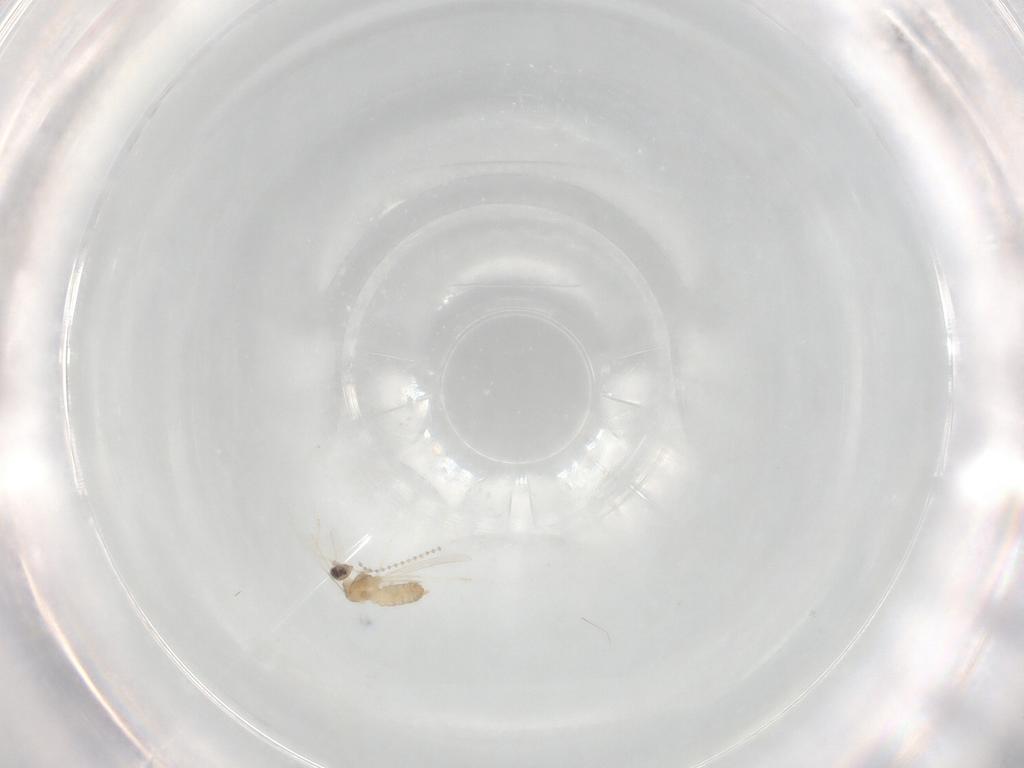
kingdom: Animalia
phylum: Arthropoda
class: Insecta
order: Diptera
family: Cecidomyiidae
